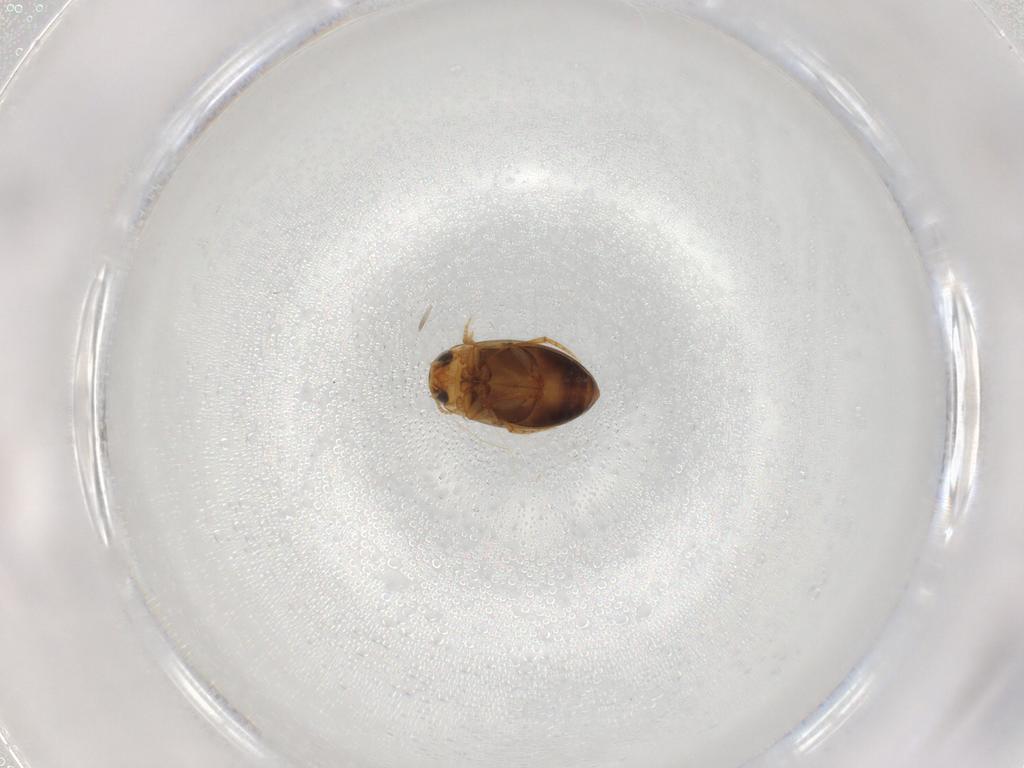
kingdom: Animalia
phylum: Arthropoda
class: Insecta
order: Coleoptera
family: Dytiscidae
